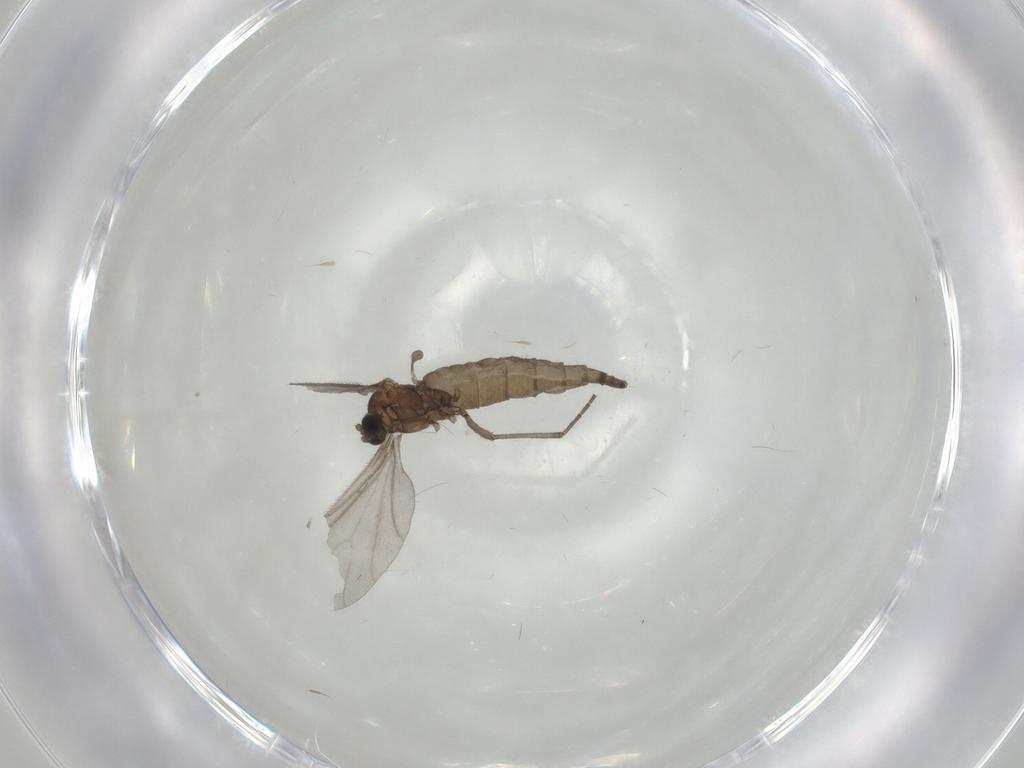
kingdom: Animalia
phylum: Arthropoda
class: Insecta
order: Diptera
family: Sciaridae
